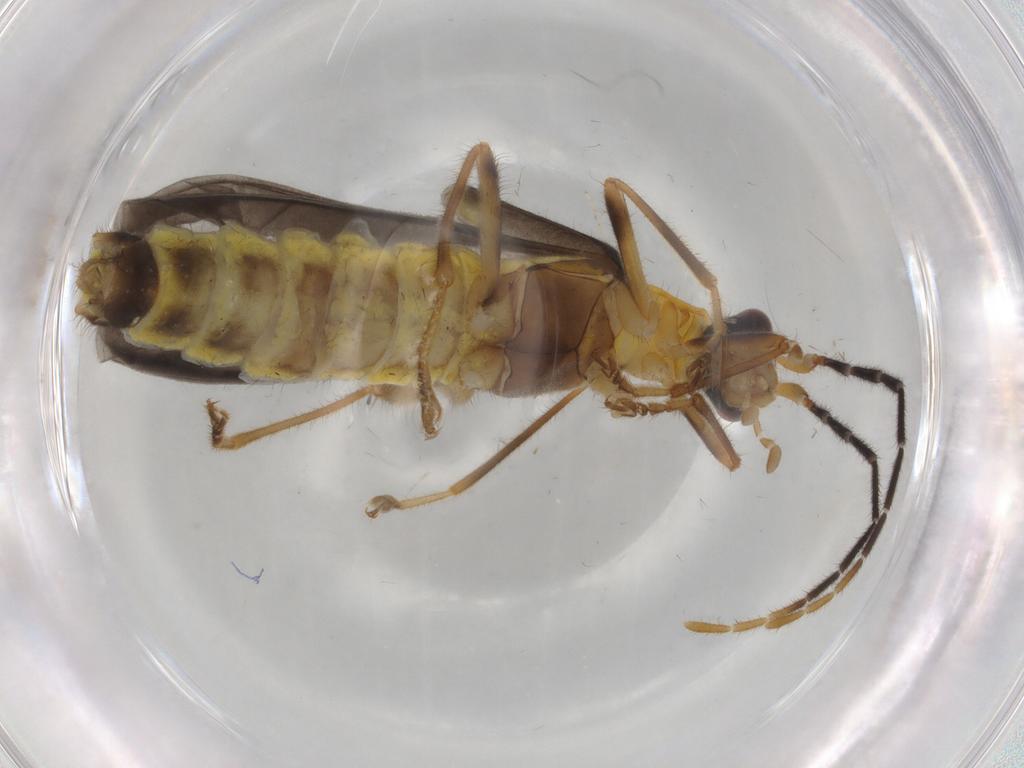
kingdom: Animalia
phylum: Arthropoda
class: Insecta
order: Coleoptera
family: Cantharidae
